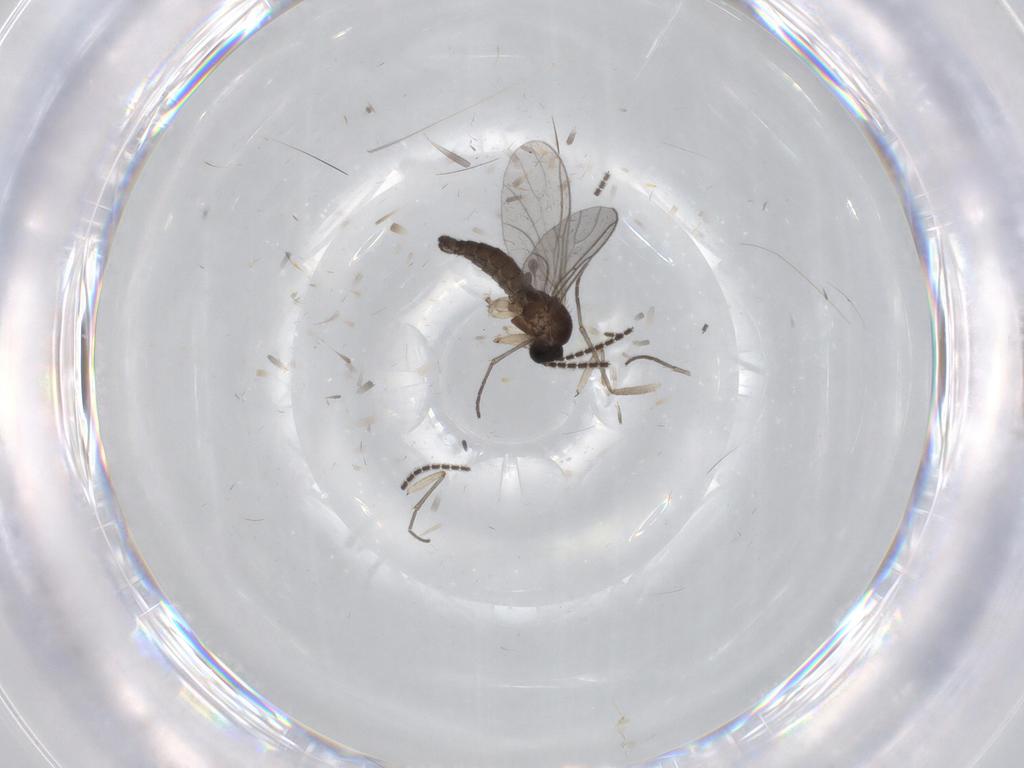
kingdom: Animalia
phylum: Arthropoda
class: Insecta
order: Diptera
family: Sciaridae
